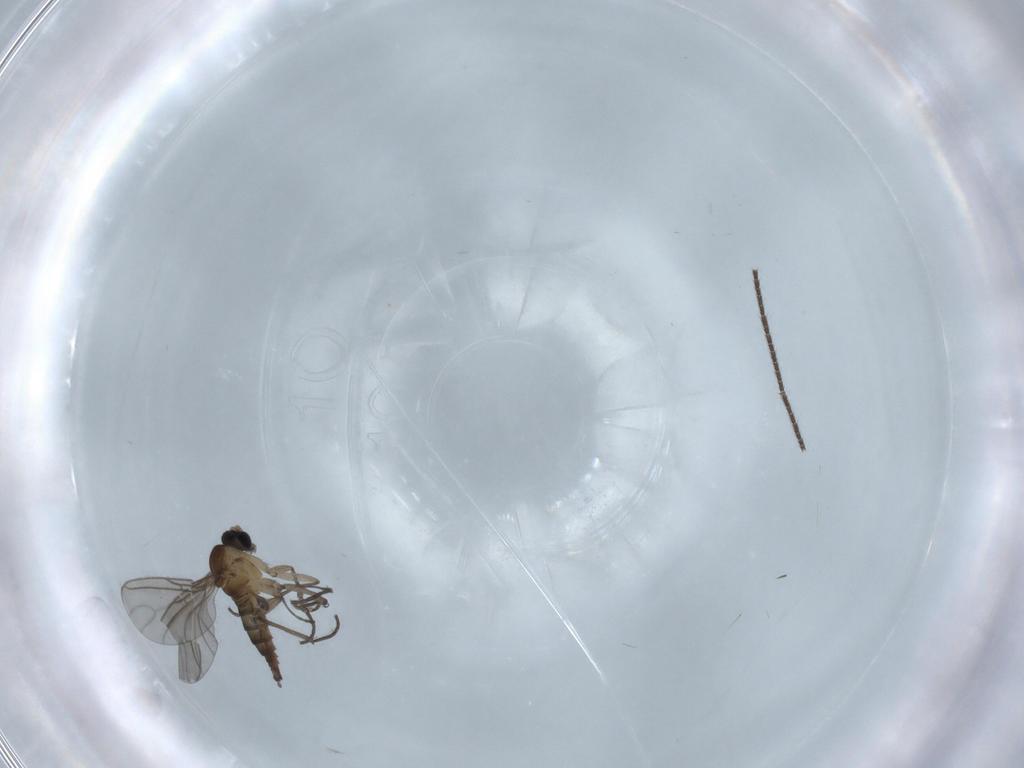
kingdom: Animalia
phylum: Arthropoda
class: Insecta
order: Diptera
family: Sciaridae
